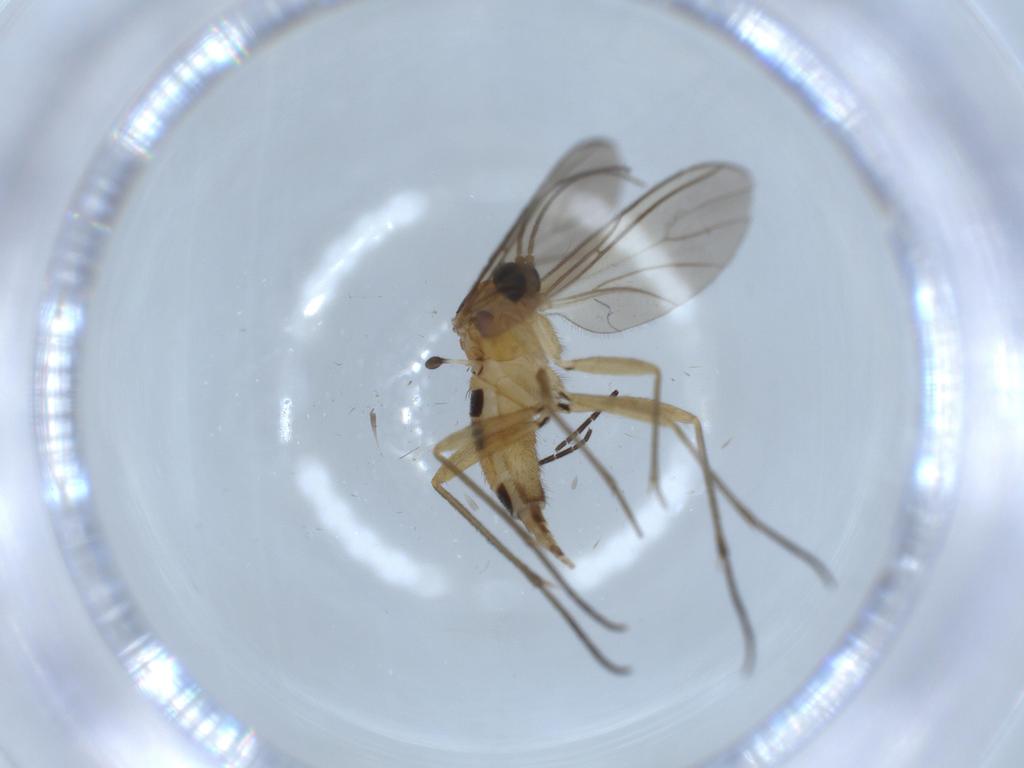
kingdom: Animalia
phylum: Arthropoda
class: Insecta
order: Diptera
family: Sciaridae
